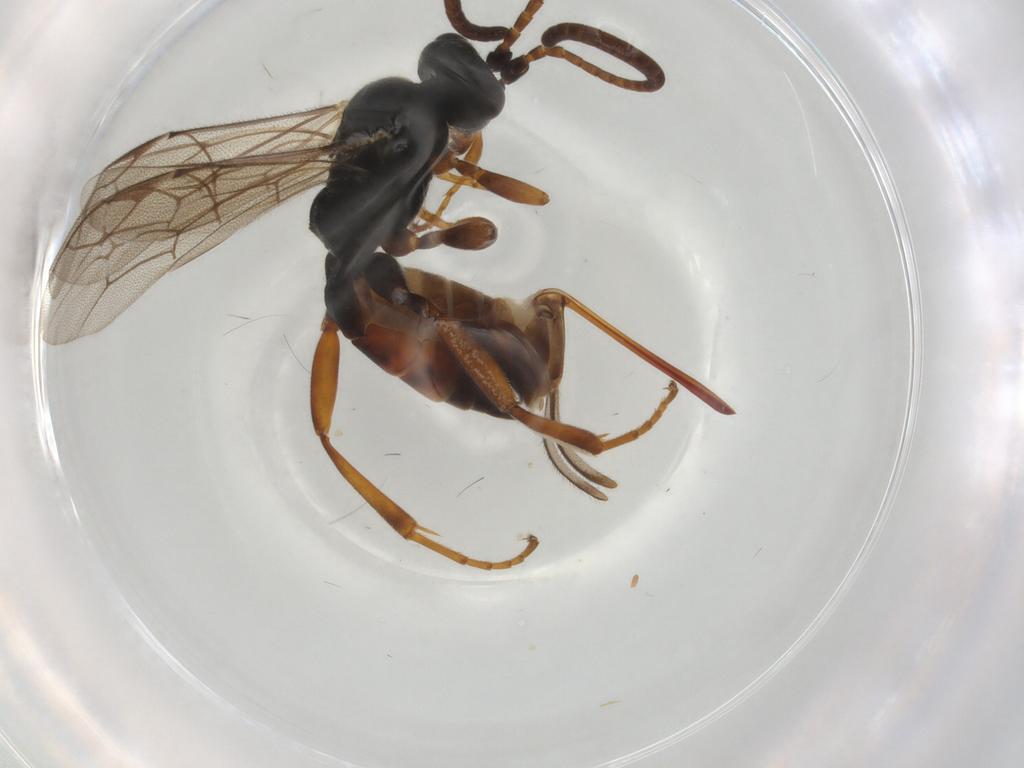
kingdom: Animalia
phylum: Arthropoda
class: Insecta
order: Hymenoptera
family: Ichneumonidae
